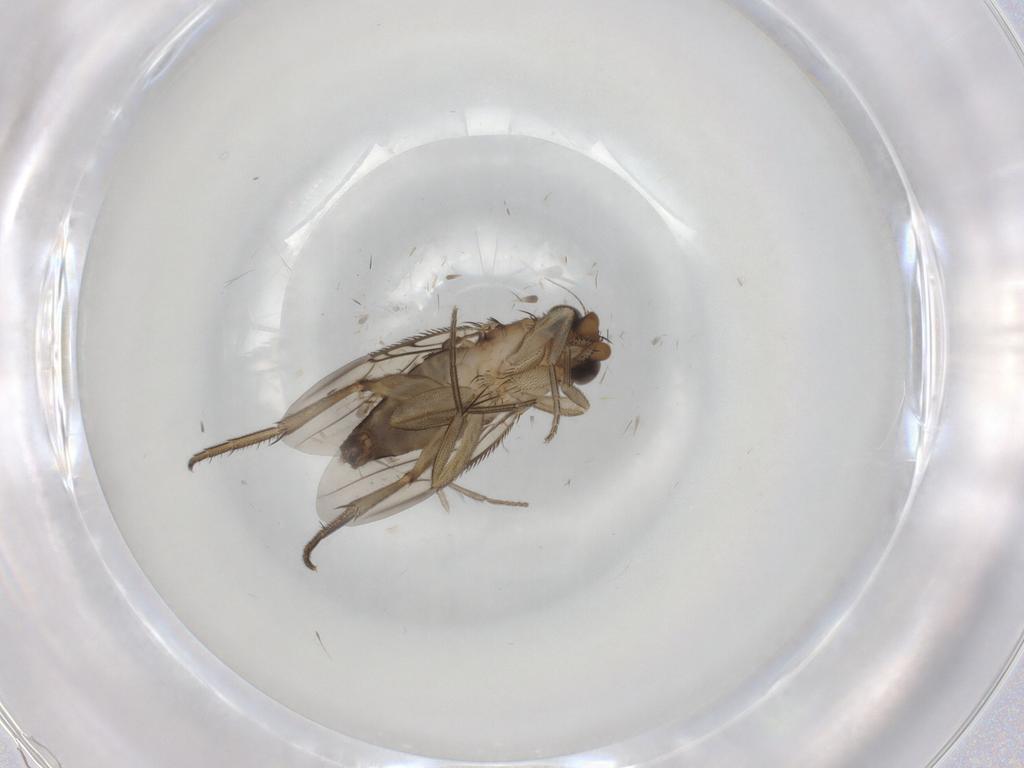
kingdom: Animalia
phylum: Arthropoda
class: Insecta
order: Diptera
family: Phoridae
